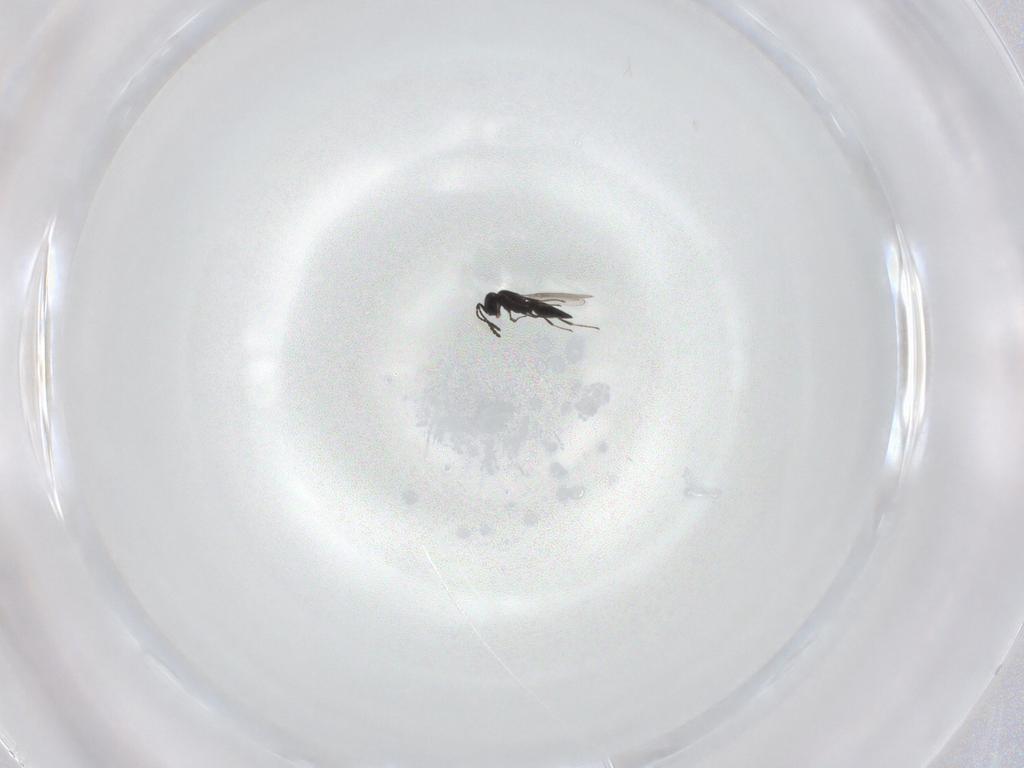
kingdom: Animalia
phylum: Arthropoda
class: Insecta
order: Hymenoptera
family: Scelionidae
